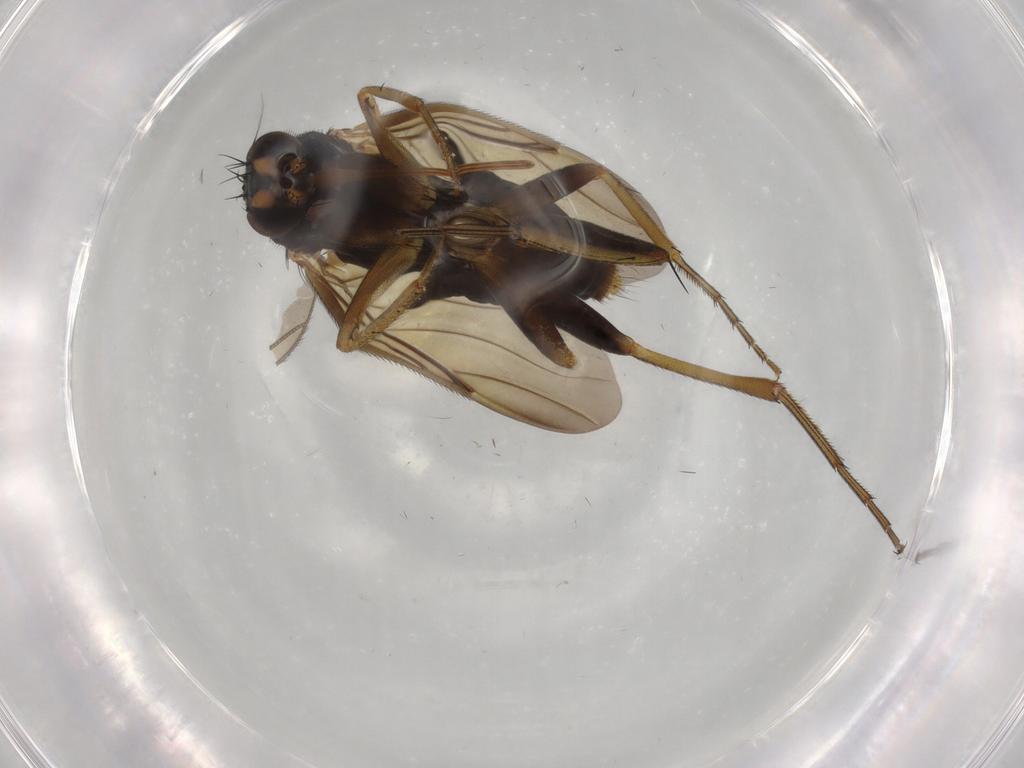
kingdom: Animalia
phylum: Arthropoda
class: Insecta
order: Diptera
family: Phoridae
